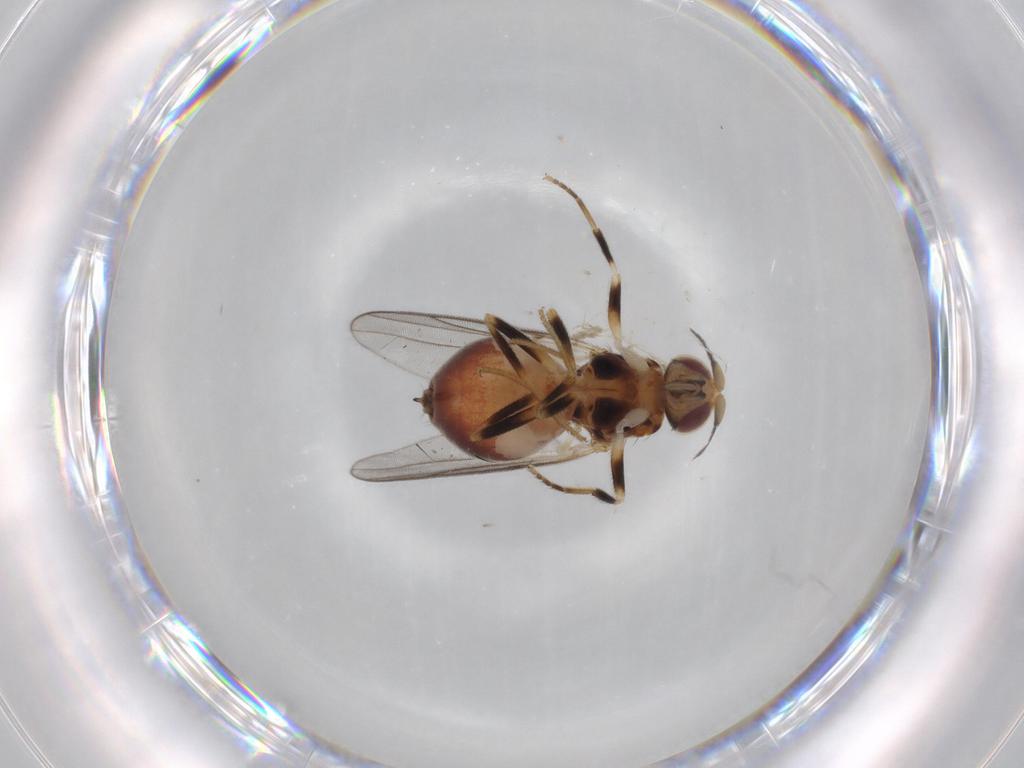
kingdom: Animalia
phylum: Arthropoda
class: Insecta
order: Diptera
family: Chloropidae
